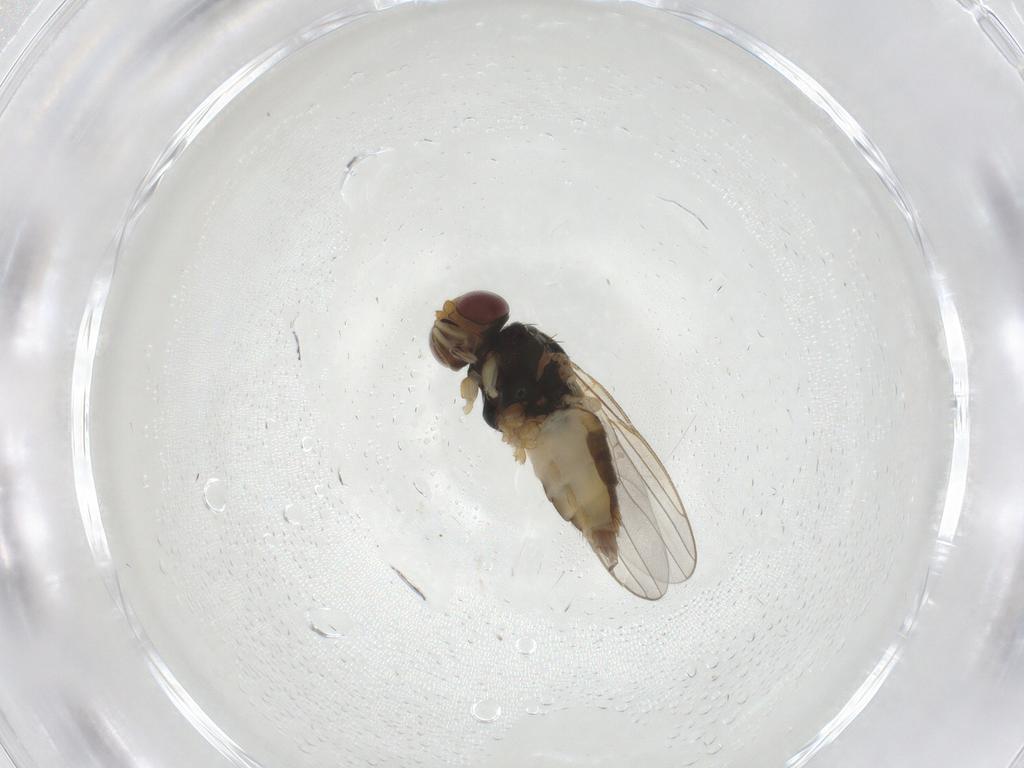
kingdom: Animalia
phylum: Arthropoda
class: Insecta
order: Diptera
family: Chloropidae
